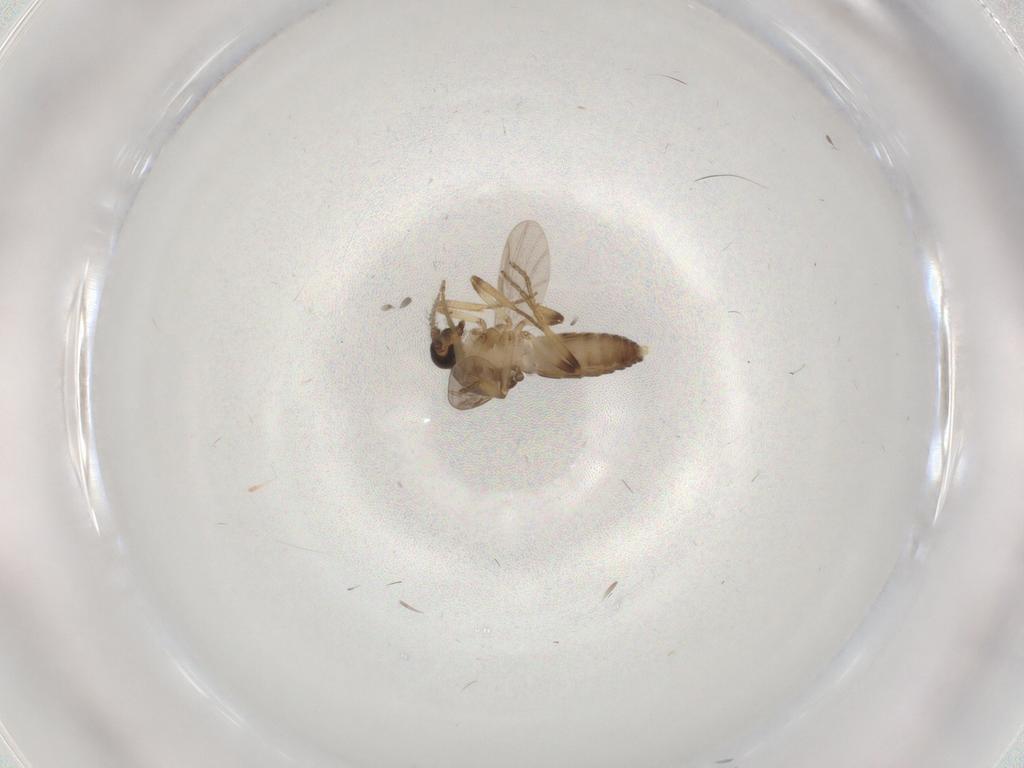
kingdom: Animalia
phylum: Arthropoda
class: Insecta
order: Diptera
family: Ceratopogonidae
